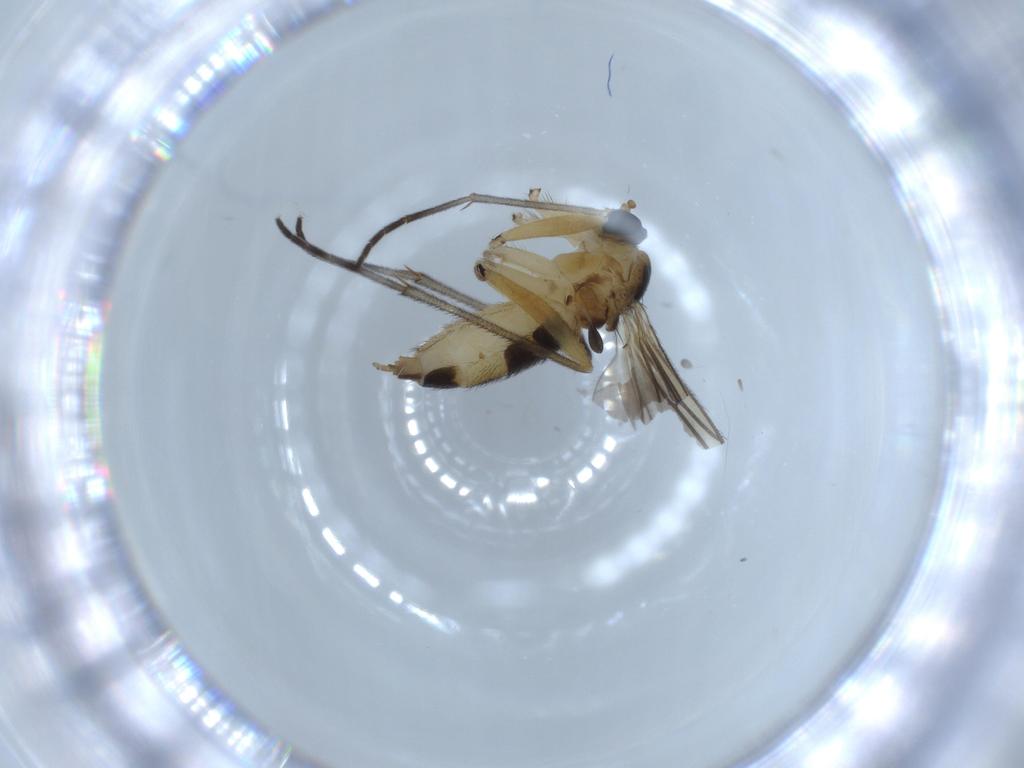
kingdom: Animalia
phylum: Arthropoda
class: Insecta
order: Diptera
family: Sciaridae
